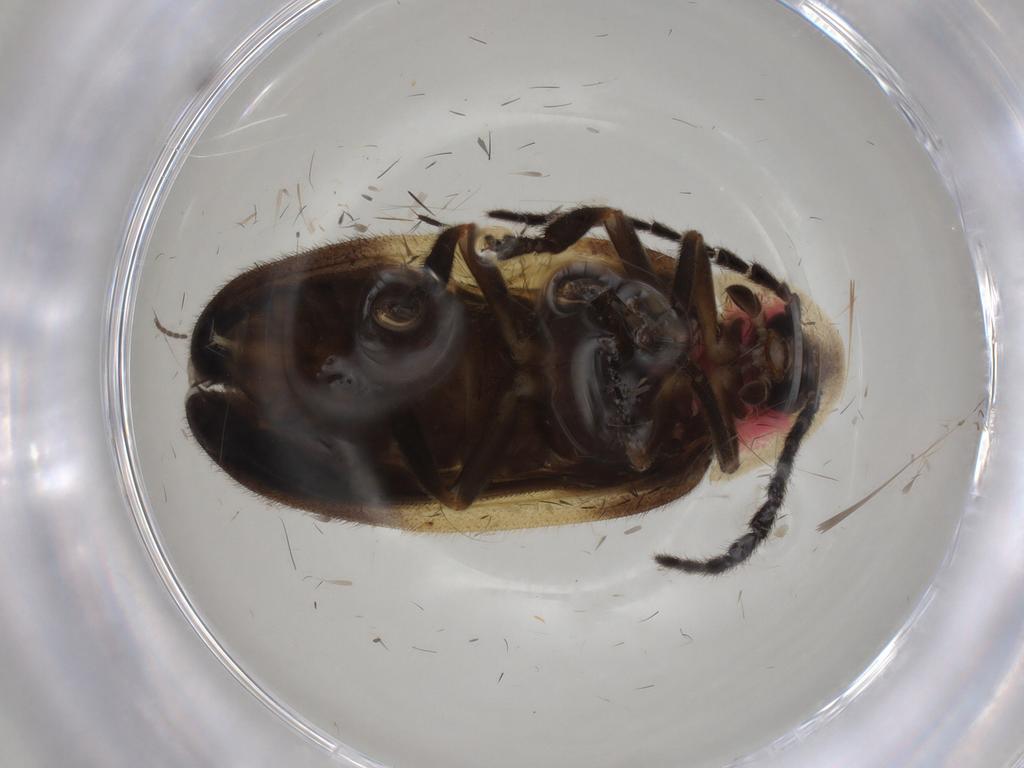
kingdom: Animalia
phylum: Arthropoda
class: Insecta
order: Coleoptera
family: Lampyridae
